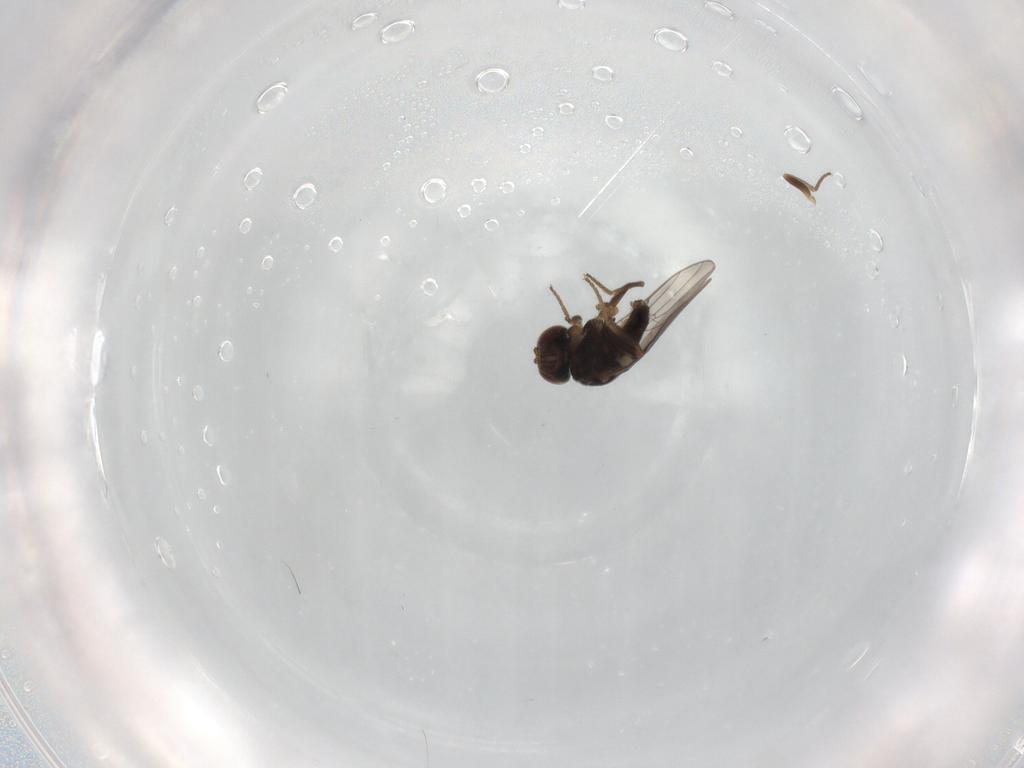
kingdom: Animalia
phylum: Arthropoda
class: Insecta
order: Diptera
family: Chloropidae
